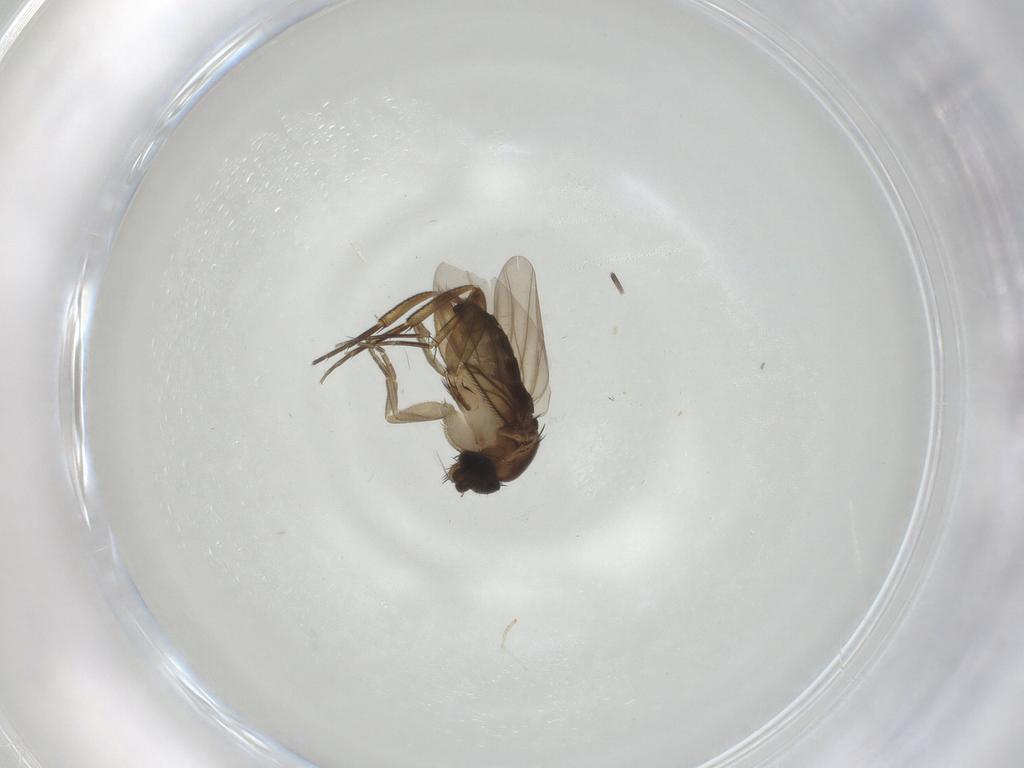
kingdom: Animalia
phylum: Arthropoda
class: Insecta
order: Diptera
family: Phoridae
